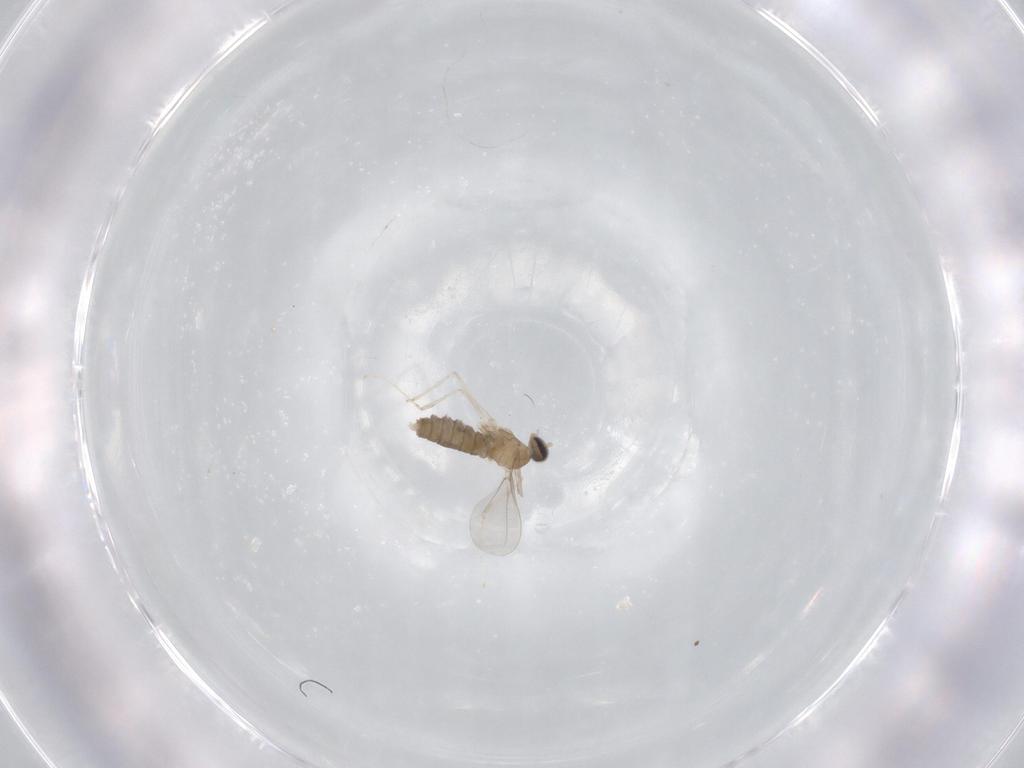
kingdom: Animalia
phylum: Arthropoda
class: Insecta
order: Diptera
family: Cecidomyiidae
